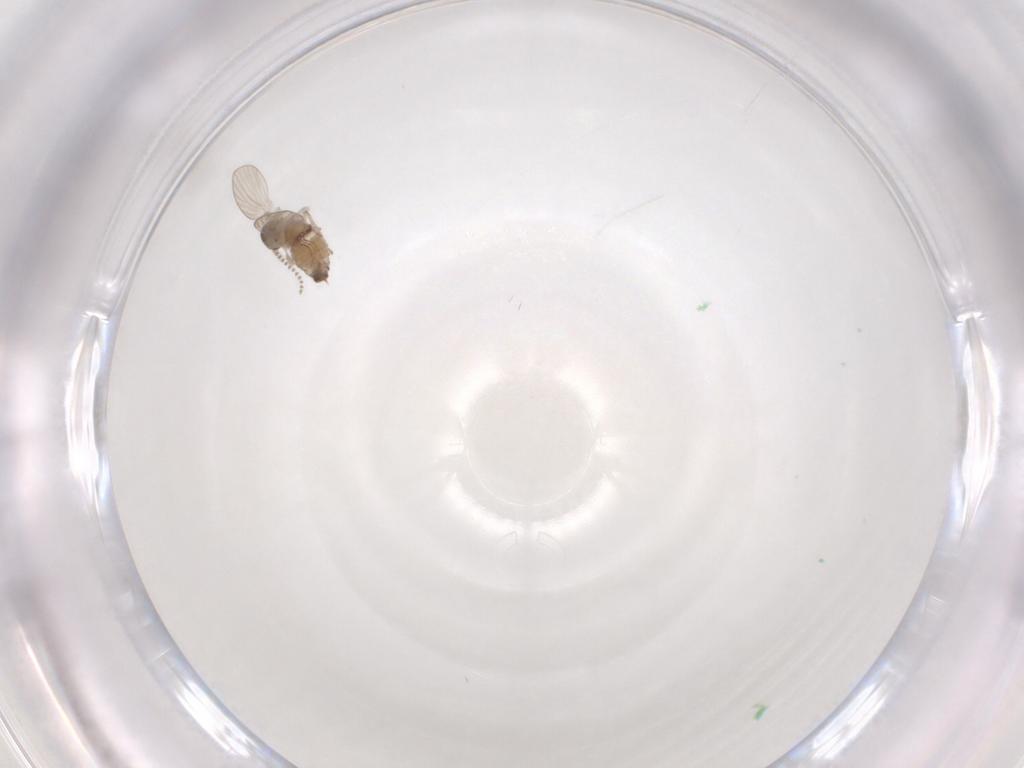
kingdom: Animalia
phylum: Arthropoda
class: Insecta
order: Diptera
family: Psychodidae
